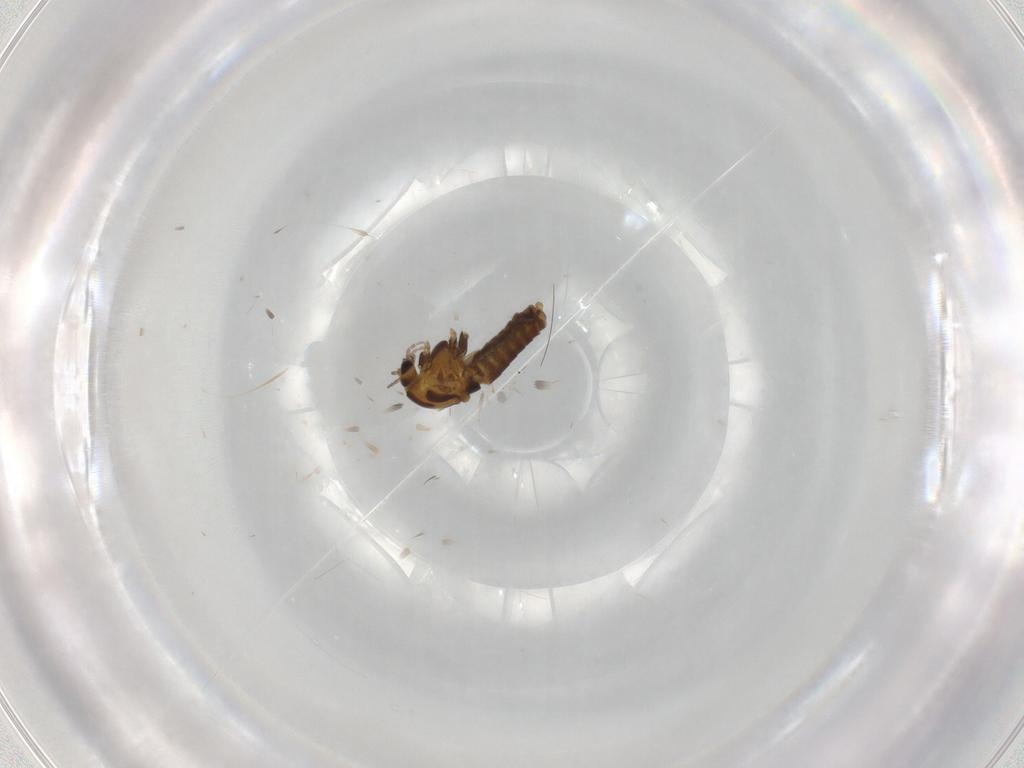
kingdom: Animalia
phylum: Arthropoda
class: Insecta
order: Diptera
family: Chironomidae
